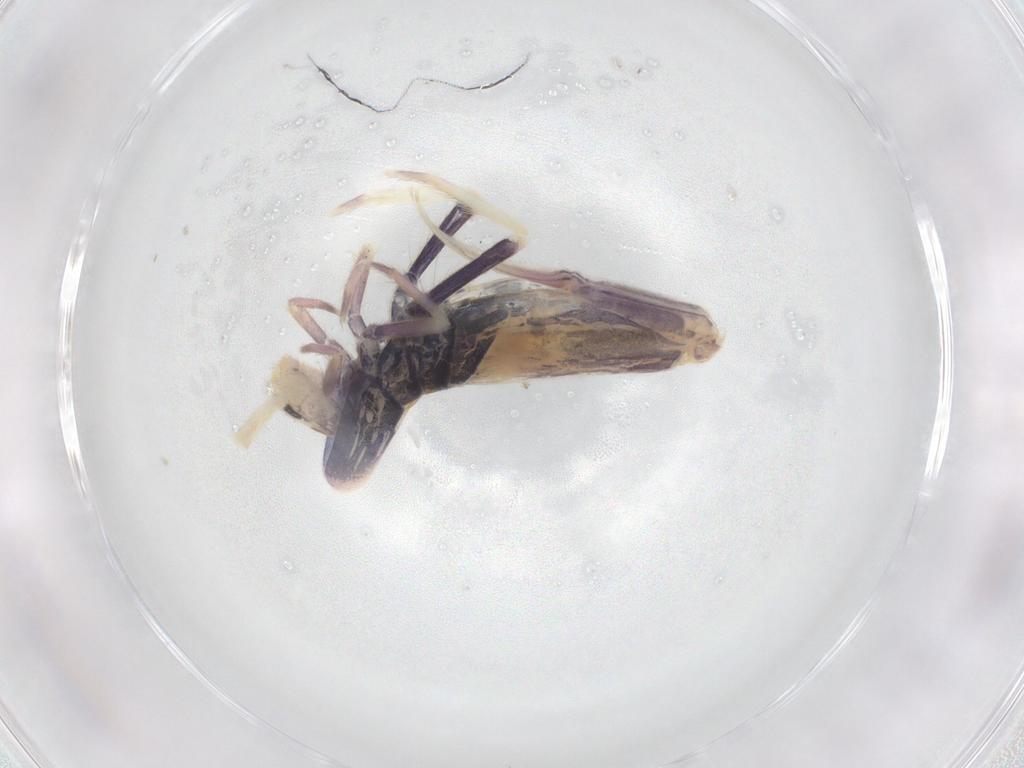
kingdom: Animalia
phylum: Arthropoda
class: Collembola
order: Entomobryomorpha
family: Entomobryidae
